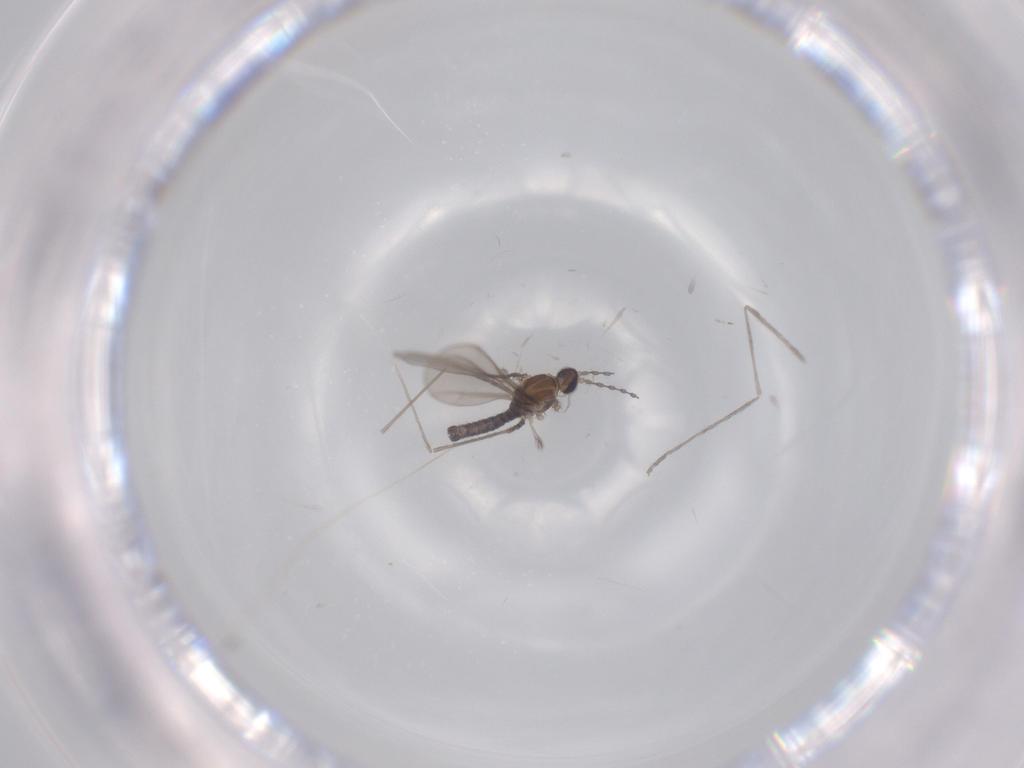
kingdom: Animalia
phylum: Arthropoda
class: Insecta
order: Diptera
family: Cecidomyiidae
